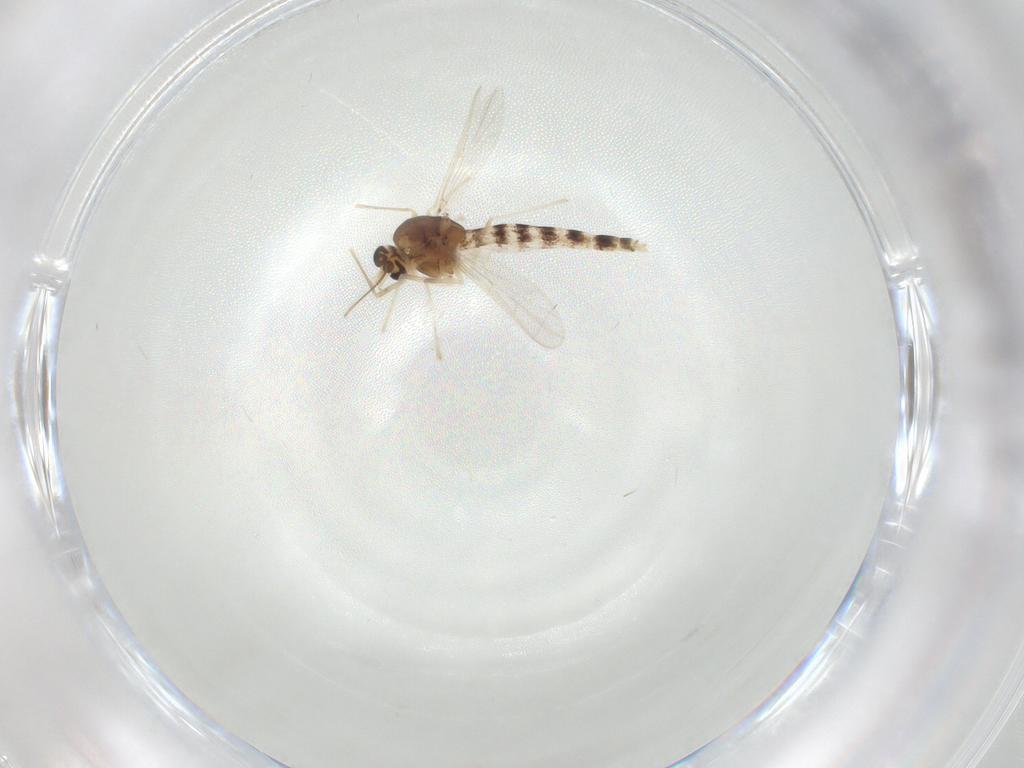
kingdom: Animalia
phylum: Arthropoda
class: Insecta
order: Diptera
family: Chironomidae
